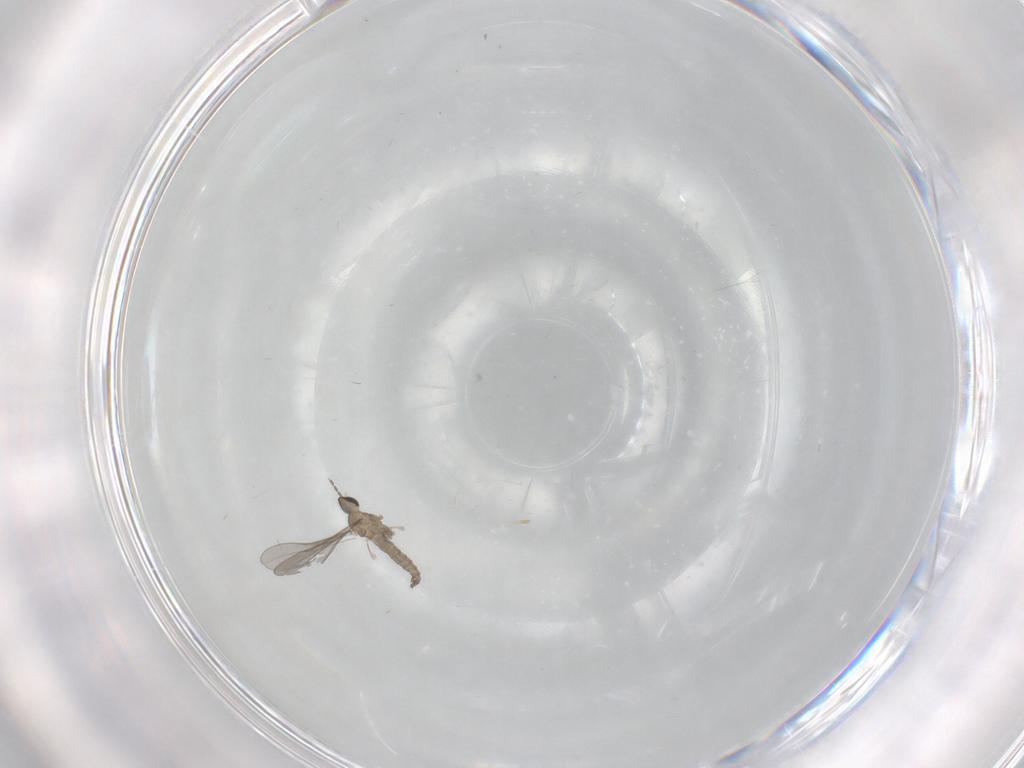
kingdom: Animalia
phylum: Arthropoda
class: Insecta
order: Diptera
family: Cecidomyiidae
